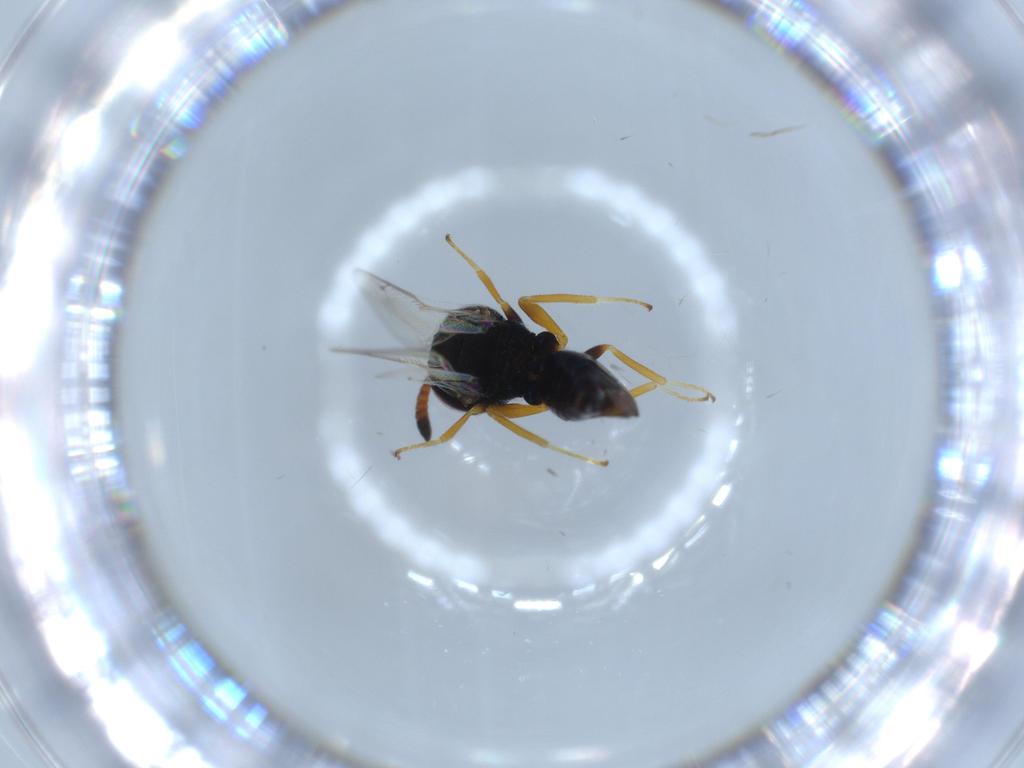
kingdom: Animalia
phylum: Arthropoda
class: Insecta
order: Hymenoptera
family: Pteromalidae
